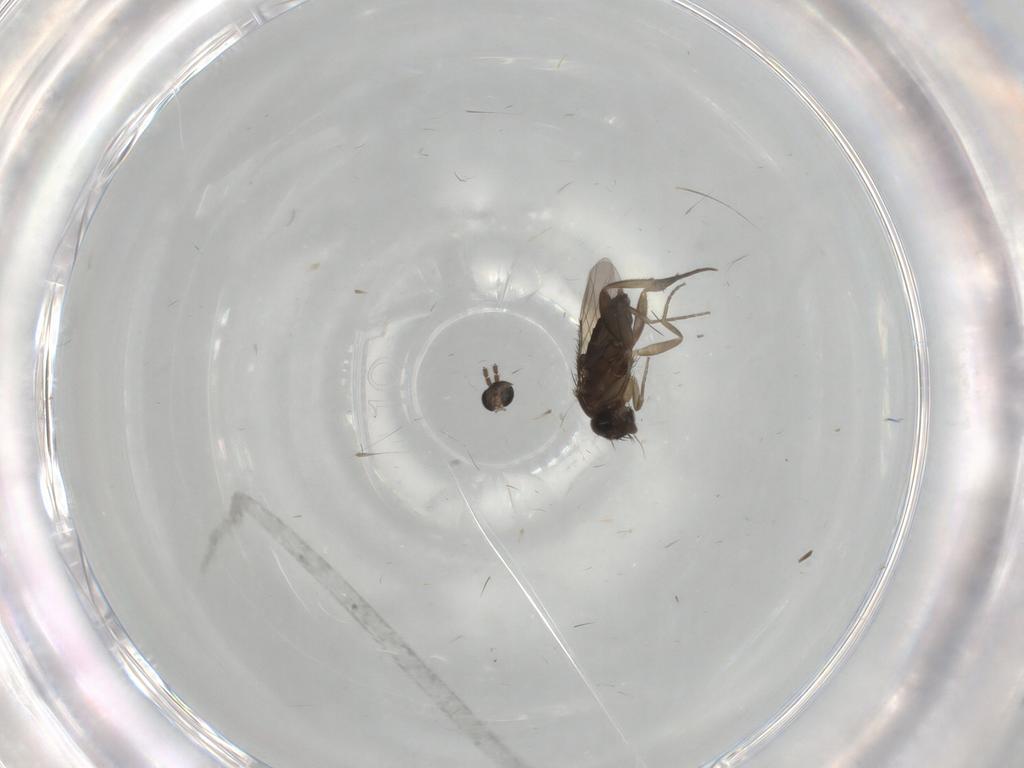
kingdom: Animalia
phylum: Arthropoda
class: Insecta
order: Diptera
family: Sciaridae
